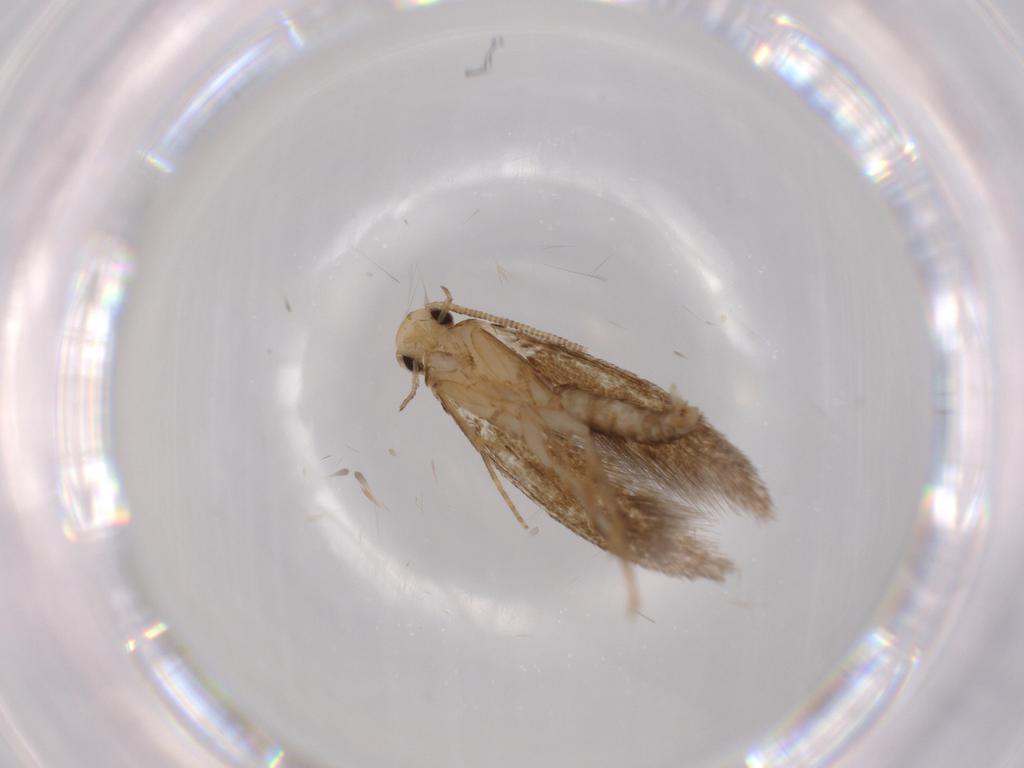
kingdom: Animalia
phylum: Arthropoda
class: Insecta
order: Lepidoptera
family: Tineidae
